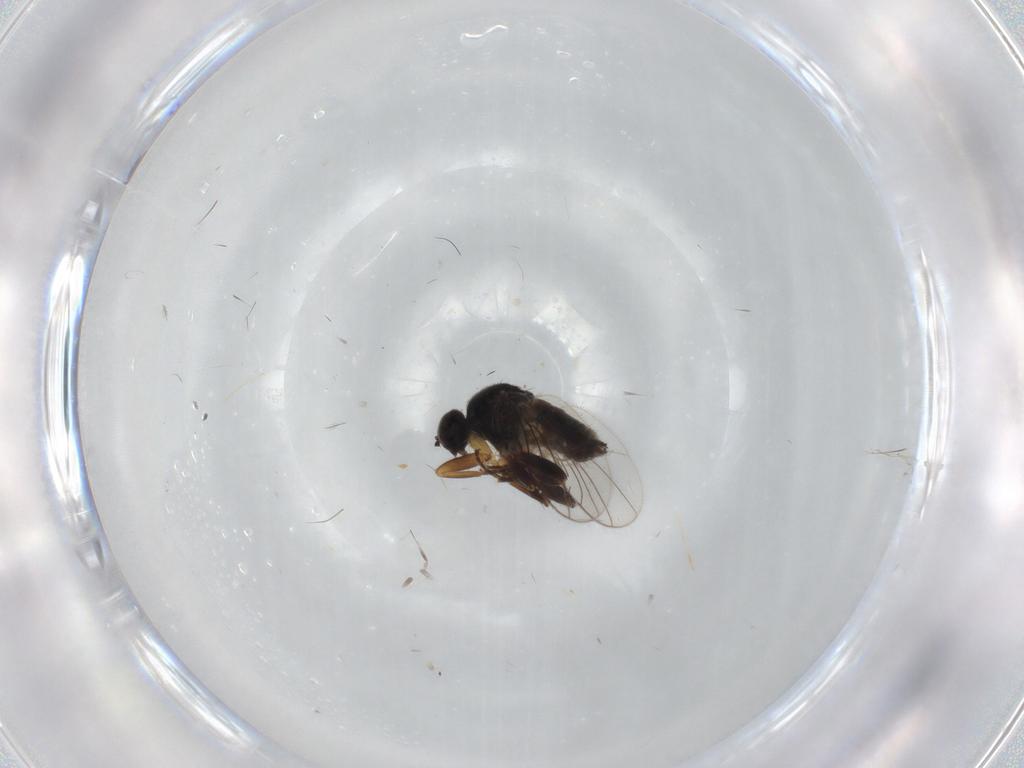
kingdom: Animalia
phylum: Arthropoda
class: Insecta
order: Diptera
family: Hybotidae
